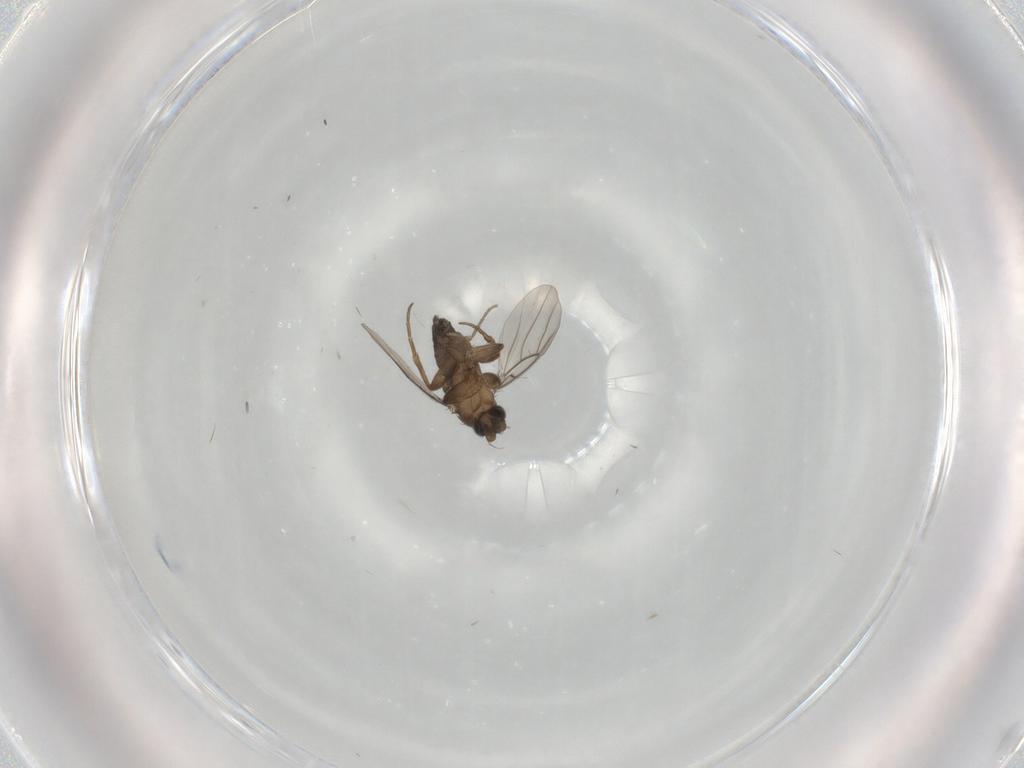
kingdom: Animalia
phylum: Arthropoda
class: Insecta
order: Diptera
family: Phoridae
